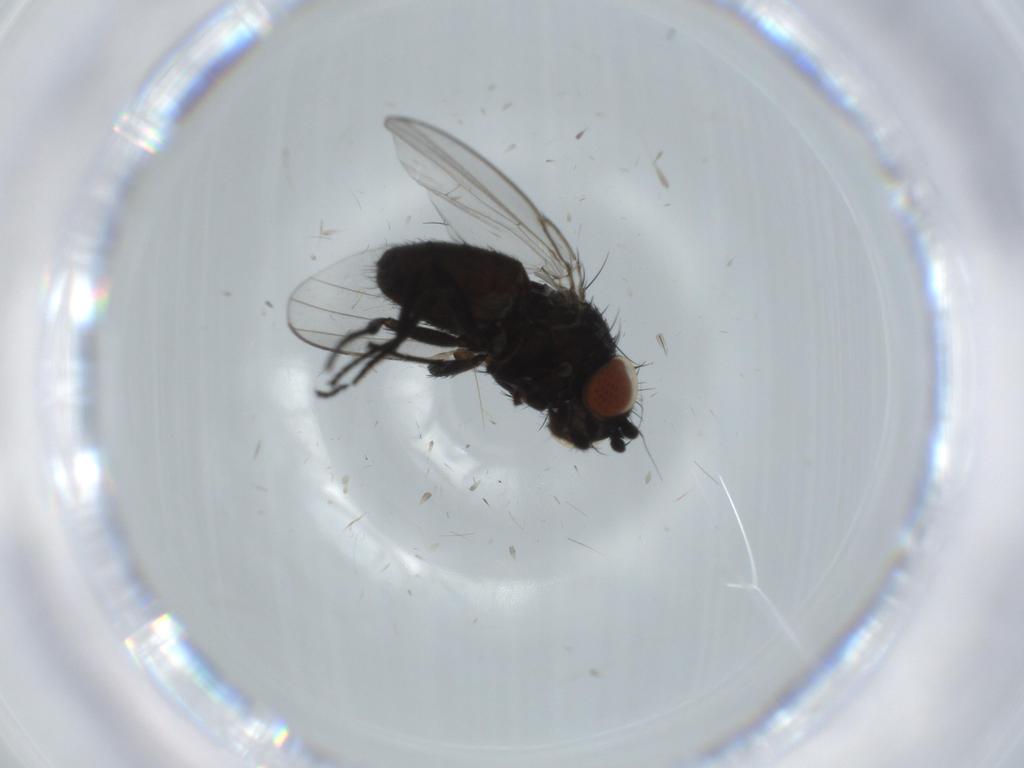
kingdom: Animalia
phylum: Arthropoda
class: Insecta
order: Diptera
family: Milichiidae
